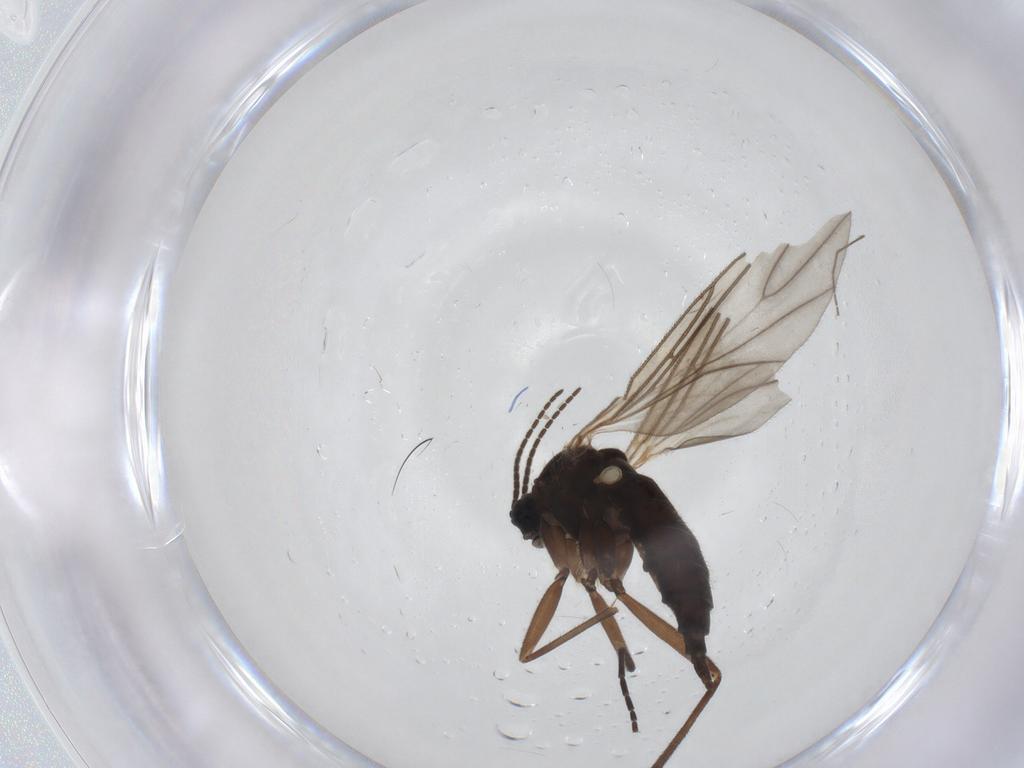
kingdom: Animalia
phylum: Arthropoda
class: Insecta
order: Diptera
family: Sciaridae
